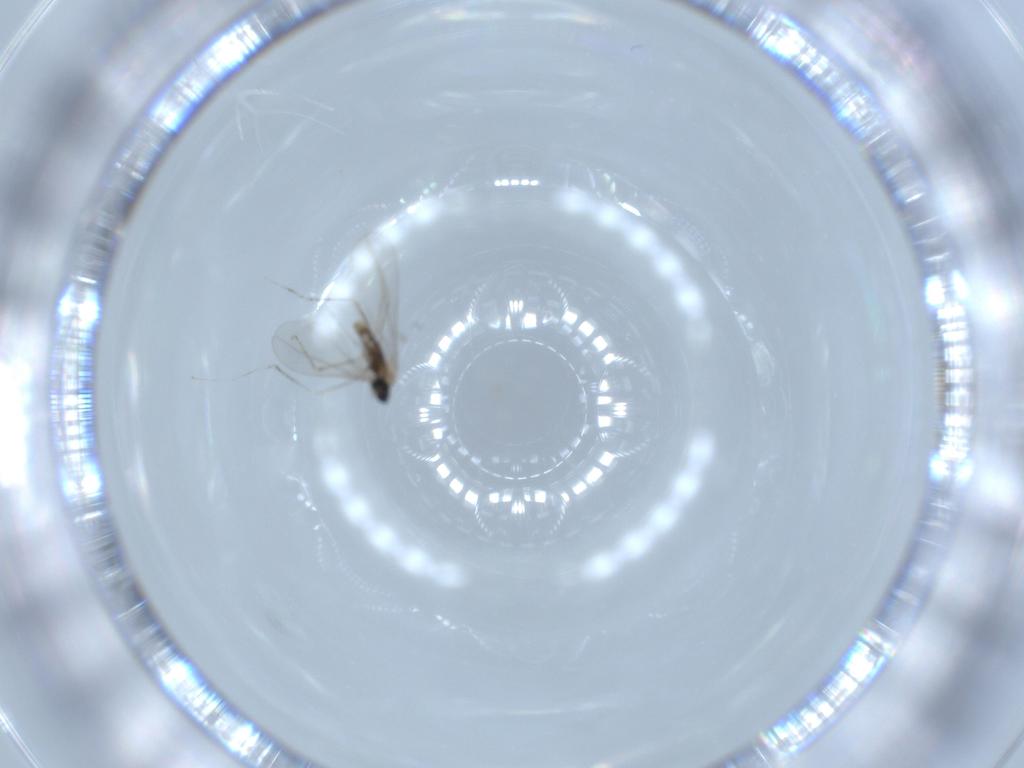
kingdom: Animalia
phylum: Arthropoda
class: Insecta
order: Diptera
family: Cecidomyiidae
